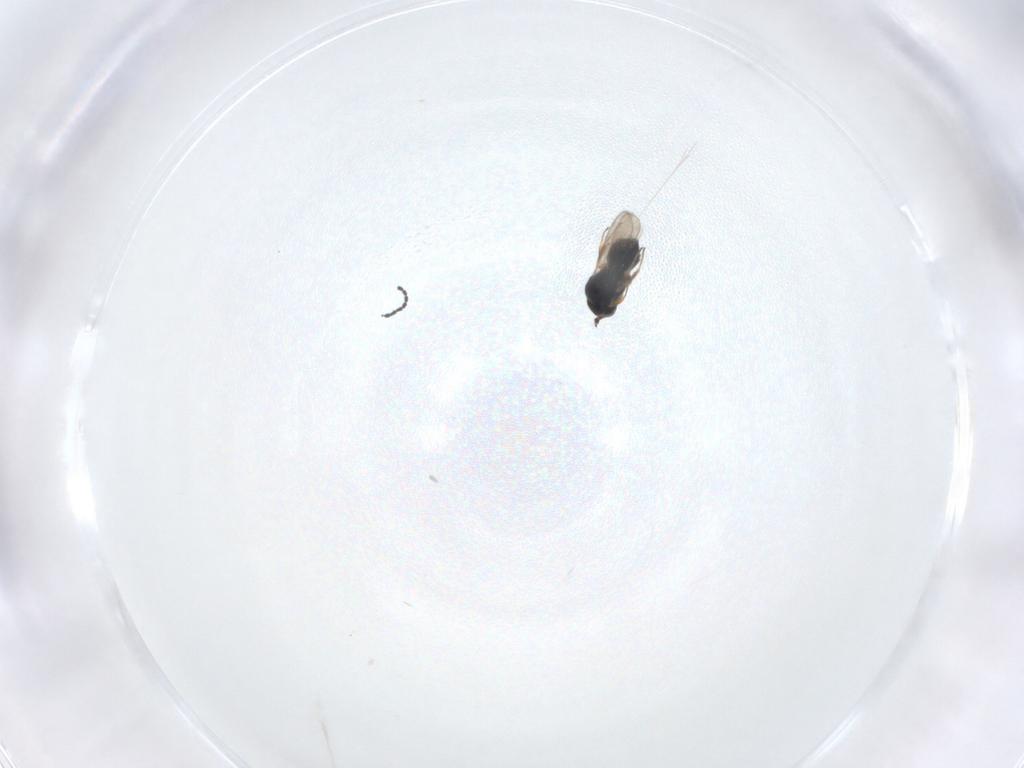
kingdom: Animalia
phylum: Arthropoda
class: Insecta
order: Hymenoptera
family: Scelionidae
